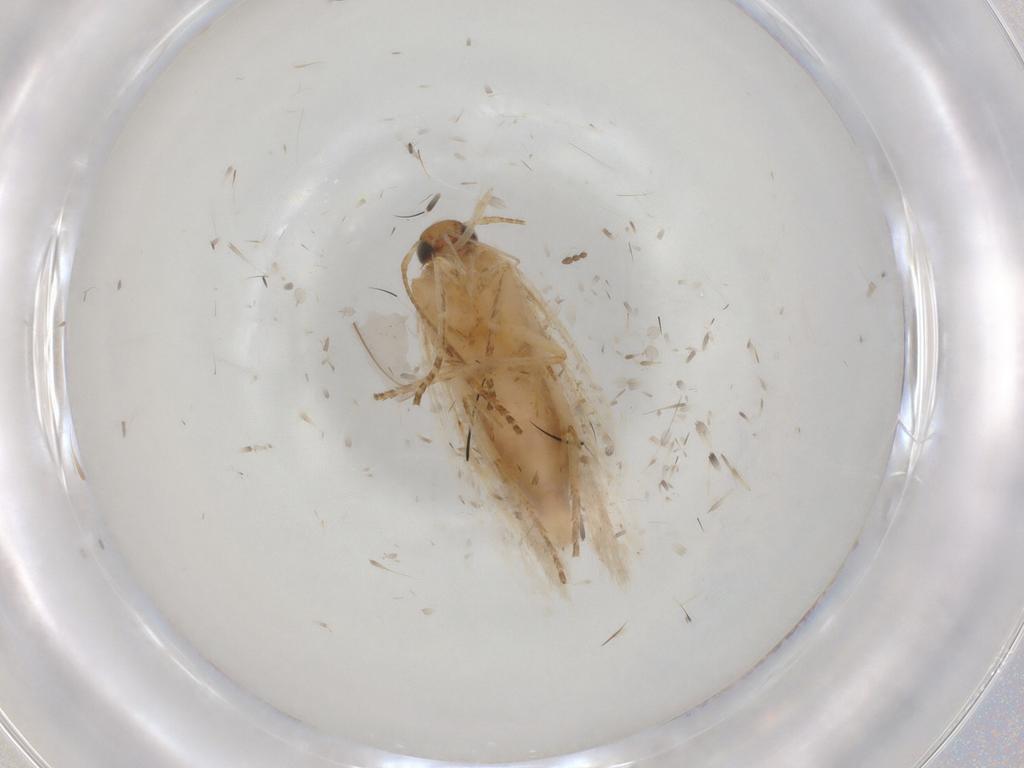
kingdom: Animalia
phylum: Arthropoda
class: Insecta
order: Lepidoptera
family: Gelechiidae
